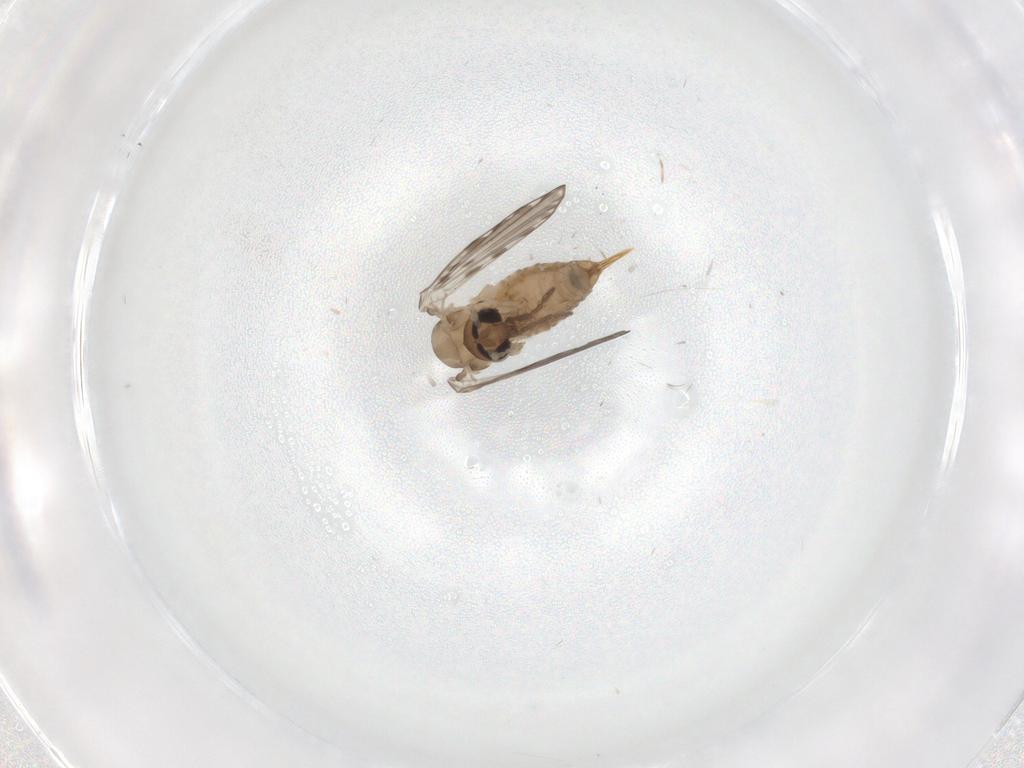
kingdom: Animalia
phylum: Arthropoda
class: Insecta
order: Diptera
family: Psychodidae
